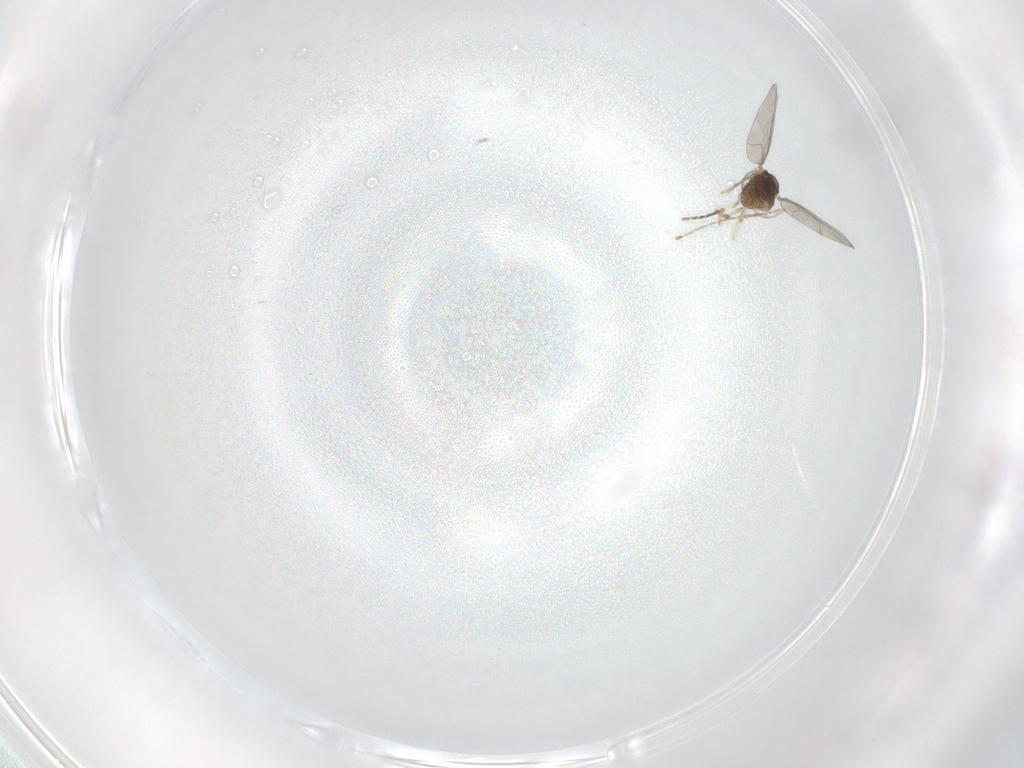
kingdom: Animalia
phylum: Arthropoda
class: Insecta
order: Diptera
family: Cecidomyiidae
